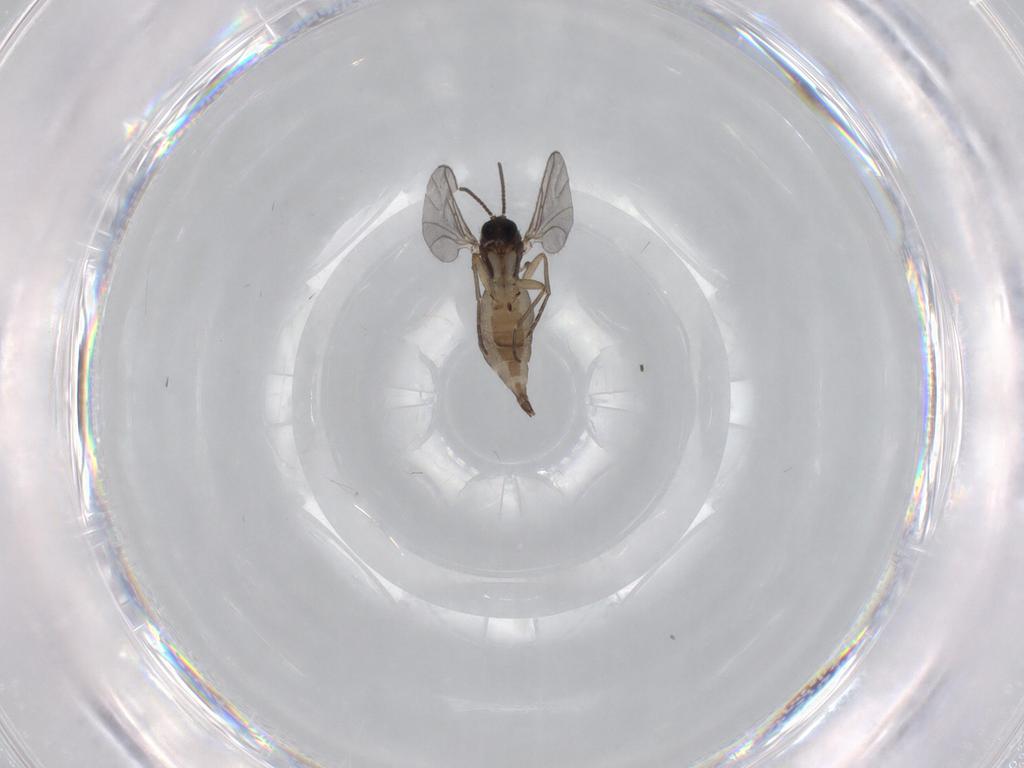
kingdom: Animalia
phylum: Arthropoda
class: Insecta
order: Diptera
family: Sciaridae
